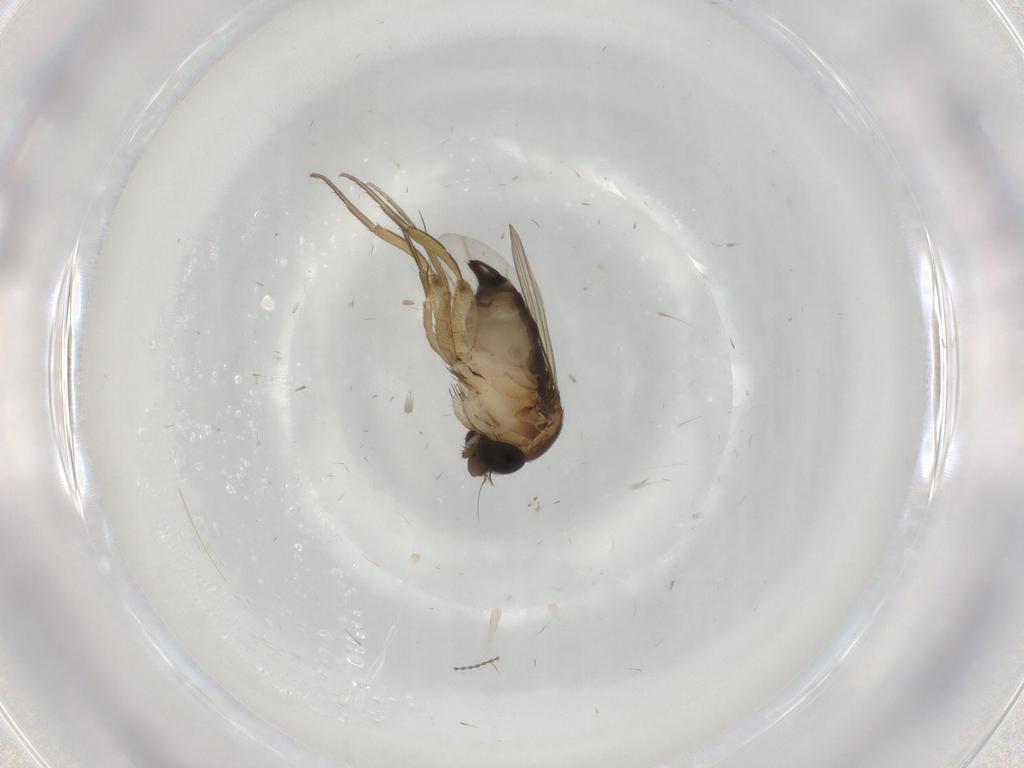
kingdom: Animalia
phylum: Arthropoda
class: Insecta
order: Diptera
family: Phoridae
